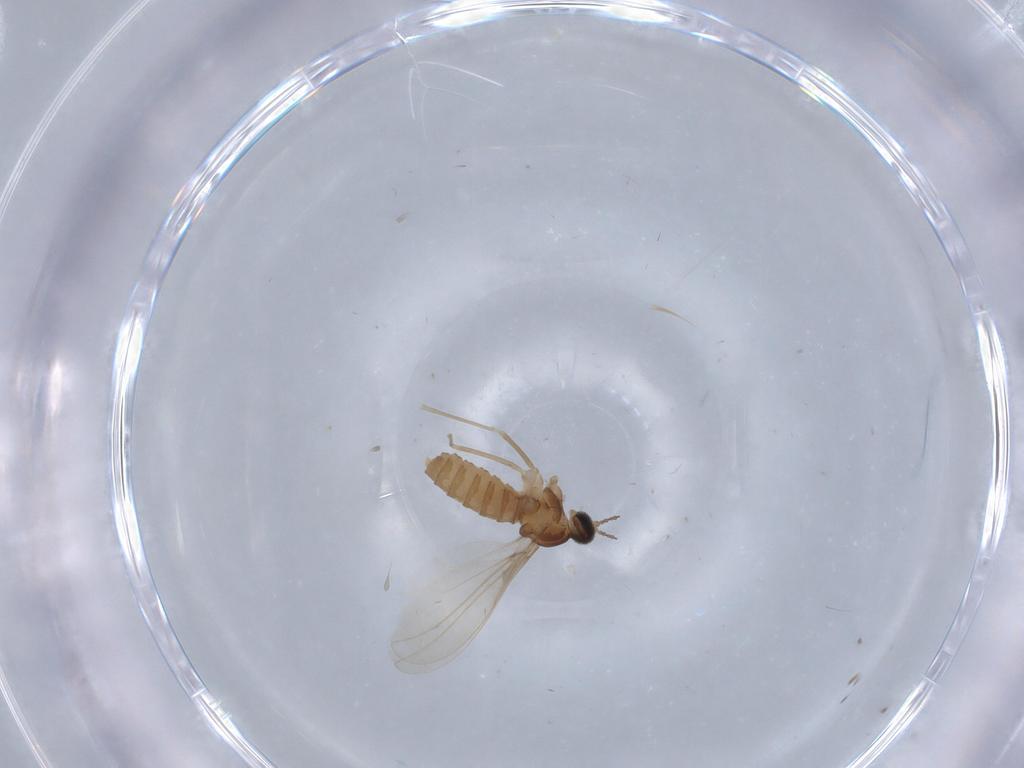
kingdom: Animalia
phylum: Arthropoda
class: Insecta
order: Diptera
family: Cecidomyiidae
